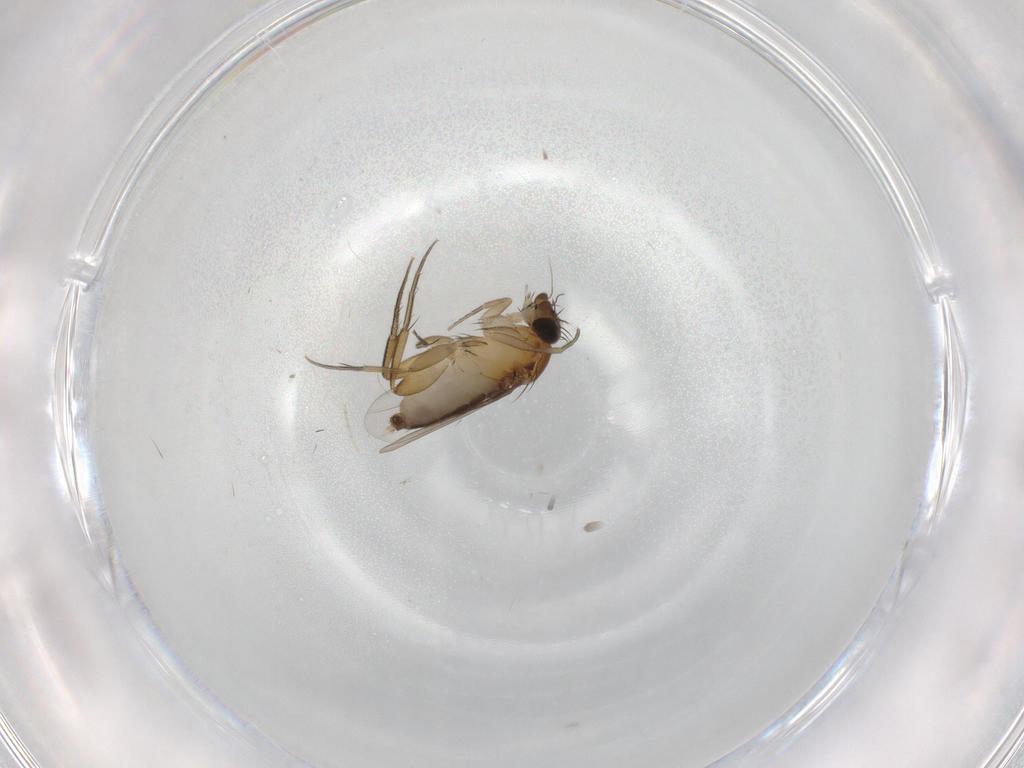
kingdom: Animalia
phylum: Arthropoda
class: Insecta
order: Diptera
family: Phoridae
